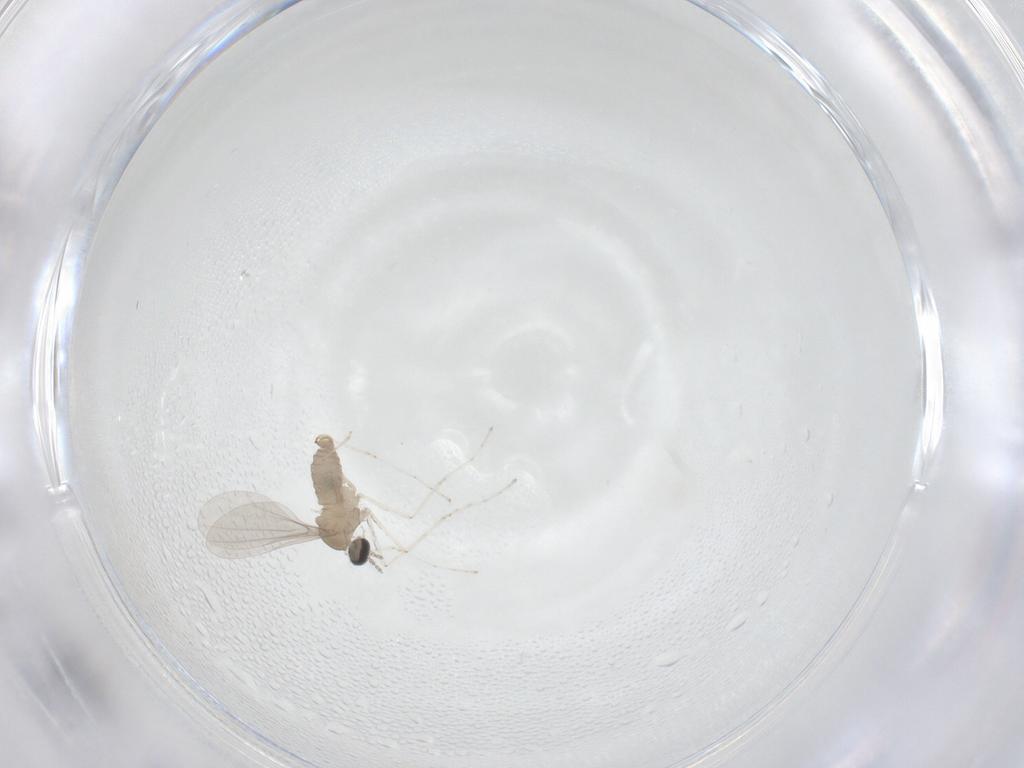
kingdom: Animalia
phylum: Arthropoda
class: Insecta
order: Diptera
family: Cecidomyiidae
